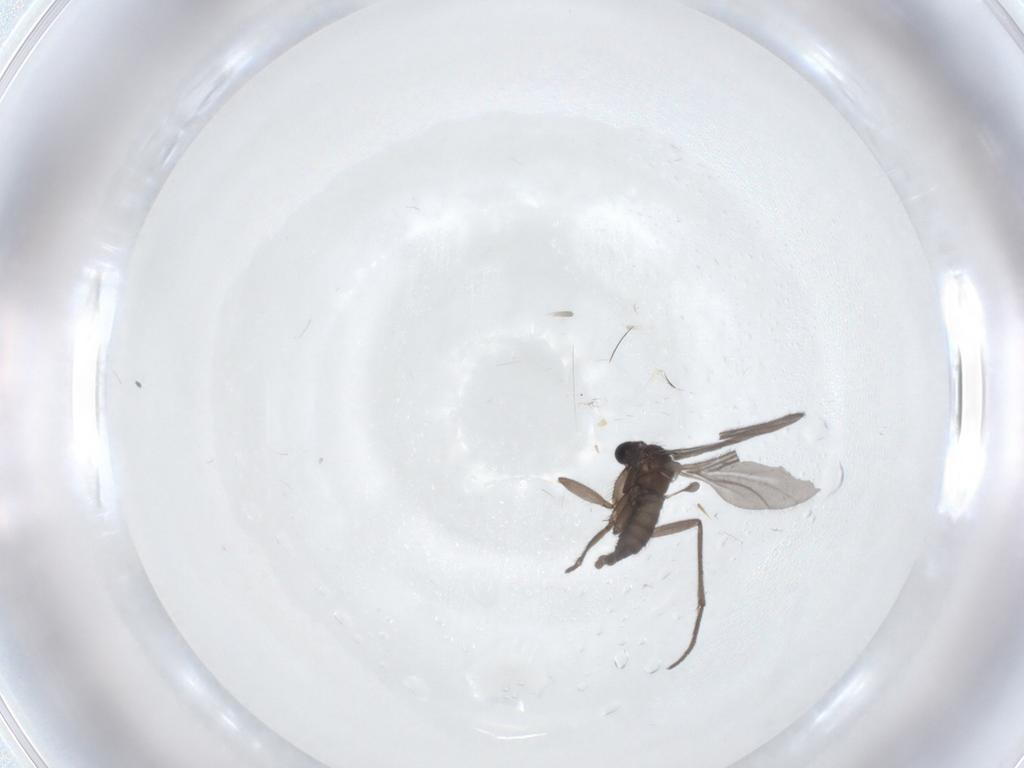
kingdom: Animalia
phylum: Arthropoda
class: Insecta
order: Diptera
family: Sciaridae
